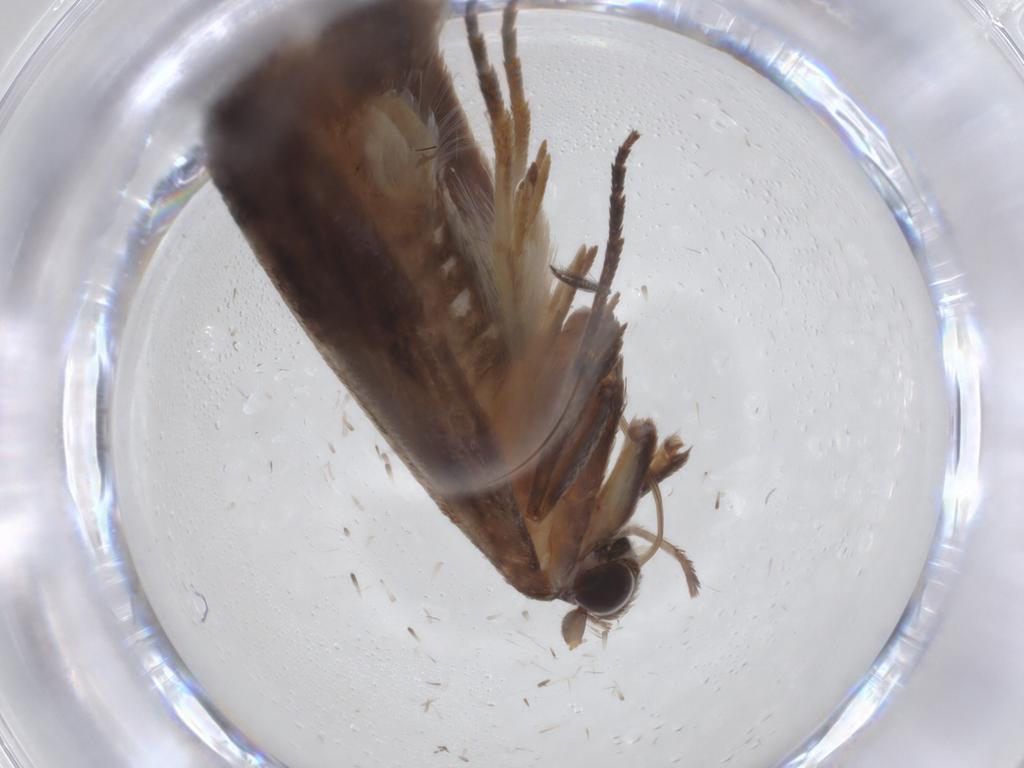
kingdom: Animalia
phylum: Arthropoda
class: Insecta
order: Lepidoptera
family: Roeslerstammiidae
